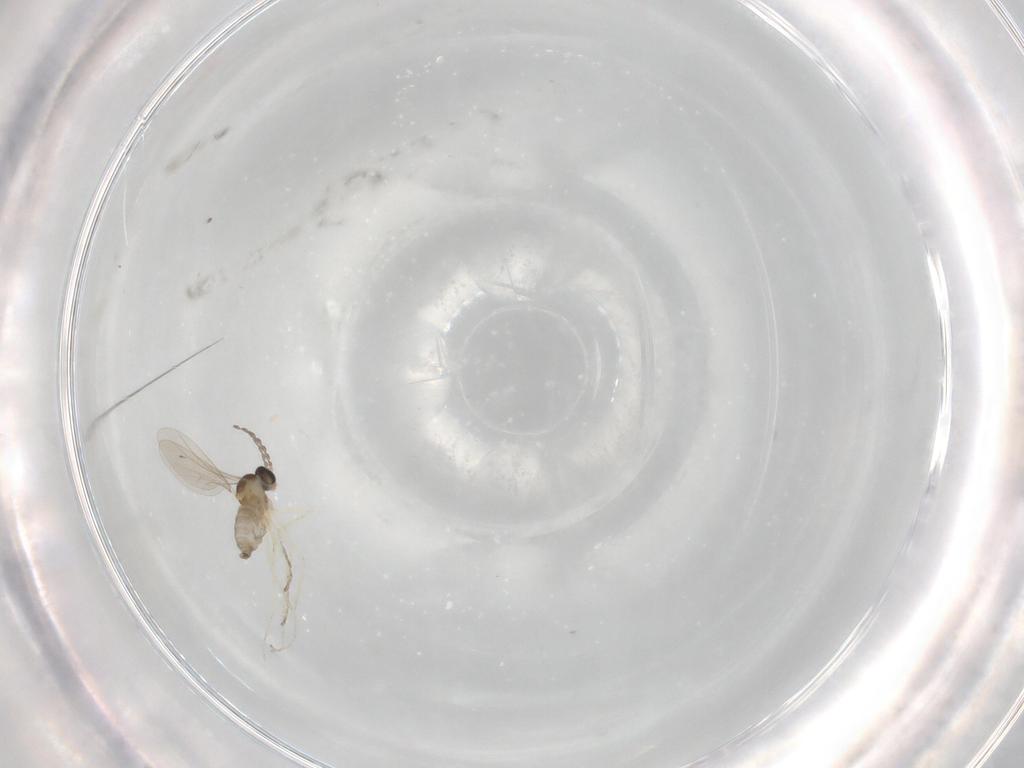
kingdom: Animalia
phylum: Arthropoda
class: Insecta
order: Diptera
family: Cecidomyiidae
